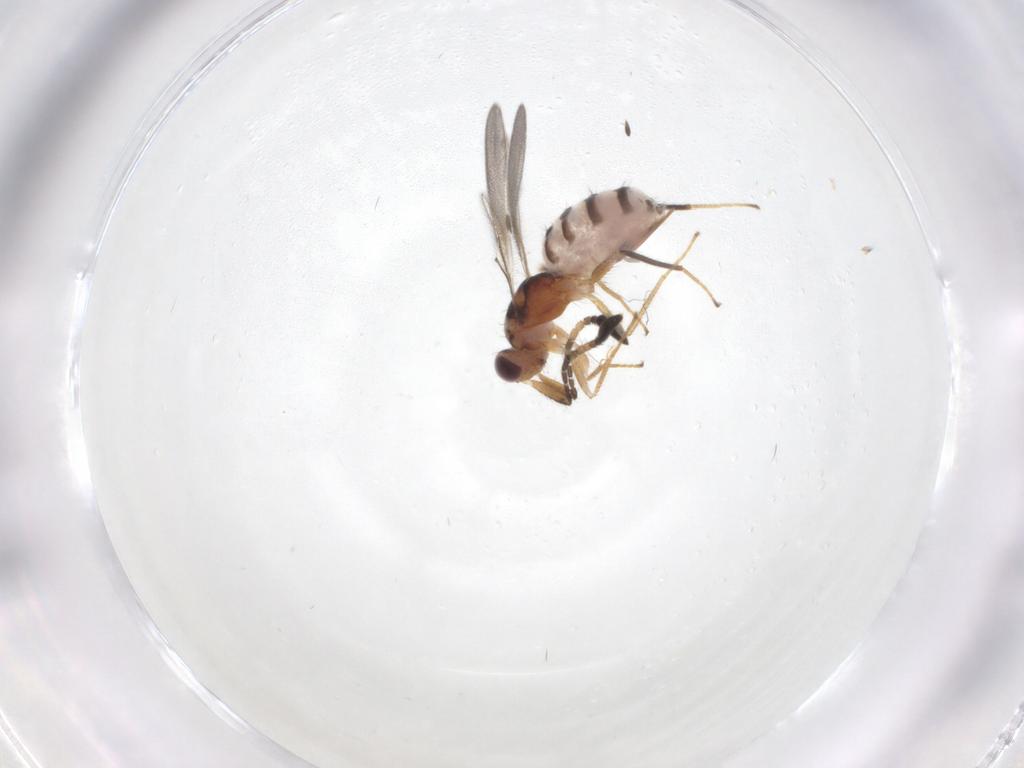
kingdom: Animalia
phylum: Arthropoda
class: Insecta
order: Hymenoptera
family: Mymaridae
